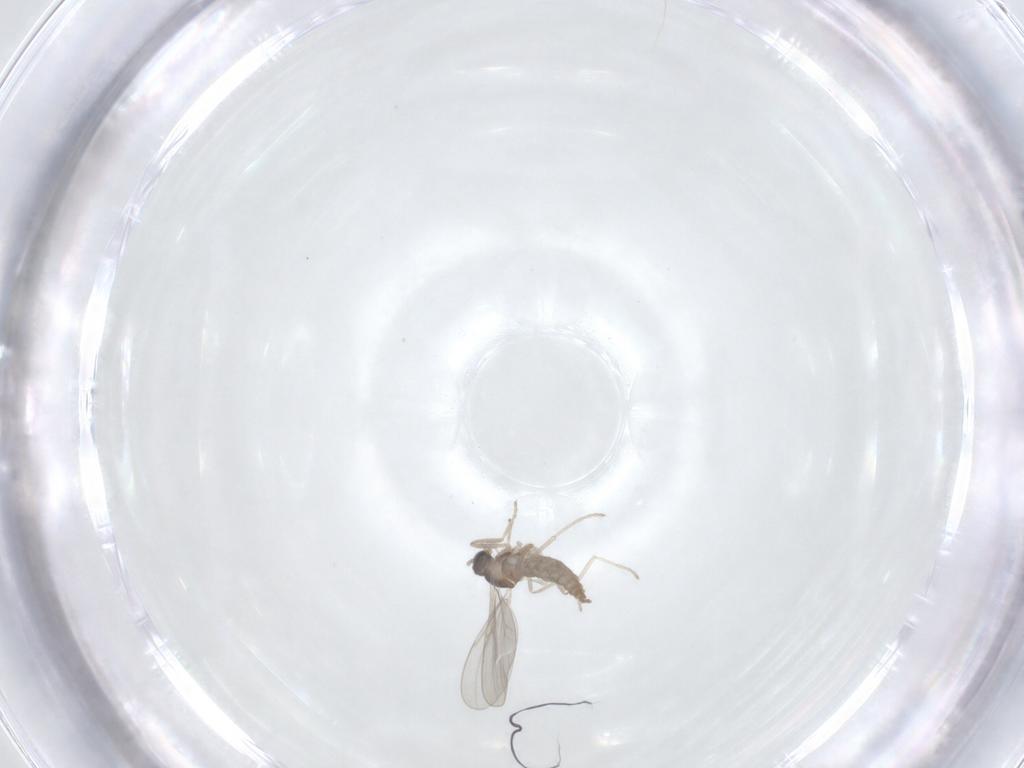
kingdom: Animalia
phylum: Arthropoda
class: Insecta
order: Diptera
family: Cecidomyiidae
